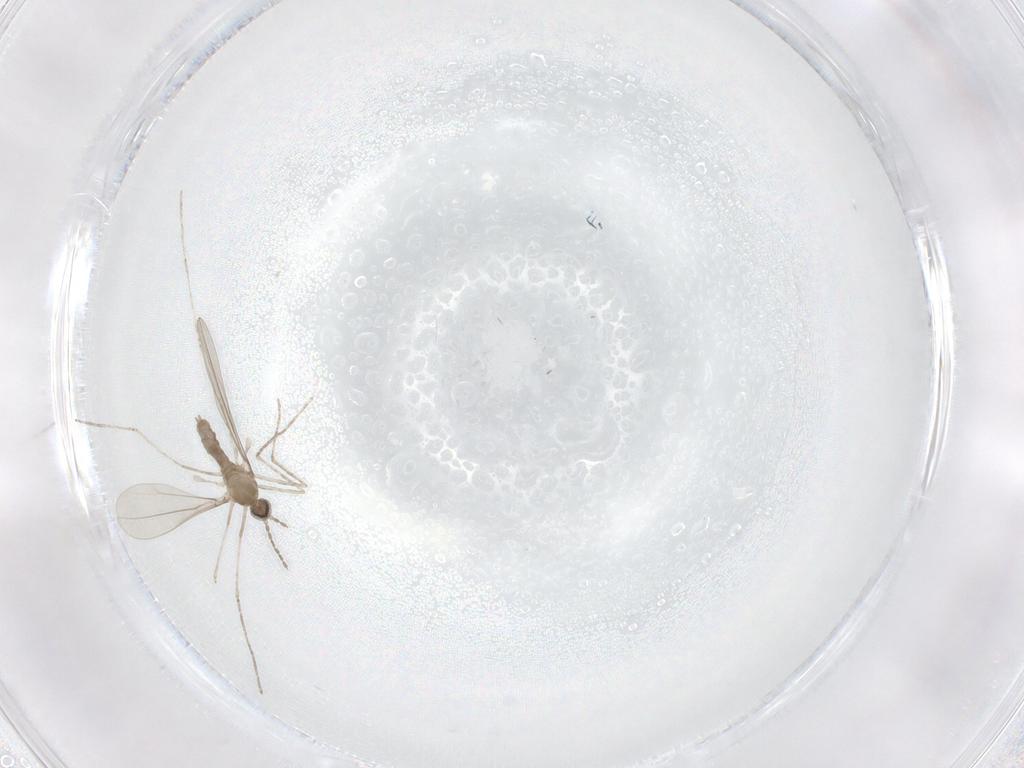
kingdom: Animalia
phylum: Arthropoda
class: Insecta
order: Diptera
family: Cecidomyiidae
